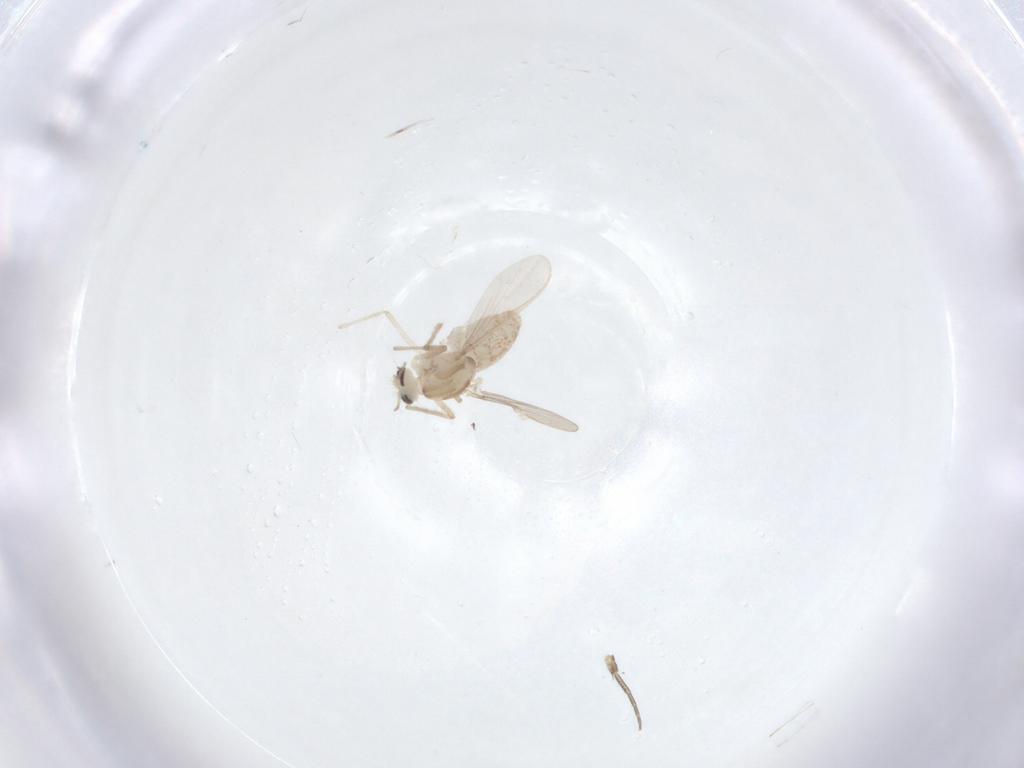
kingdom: Animalia
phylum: Arthropoda
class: Insecta
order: Diptera
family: Chironomidae
